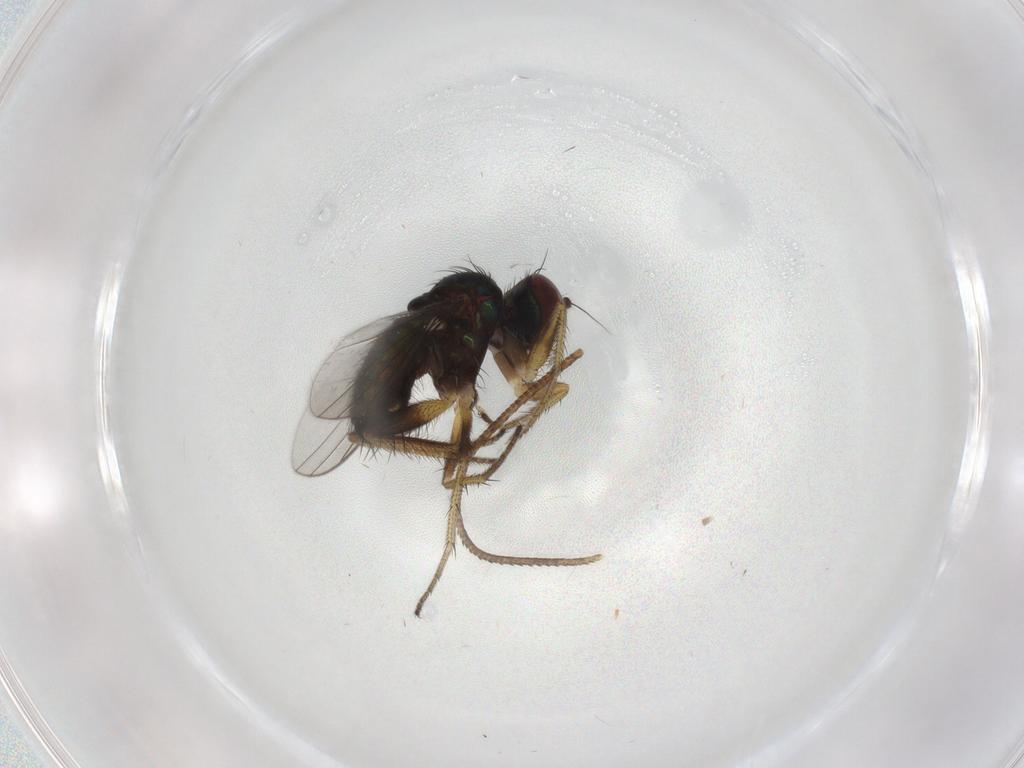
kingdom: Animalia
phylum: Arthropoda
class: Insecta
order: Diptera
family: Dolichopodidae
